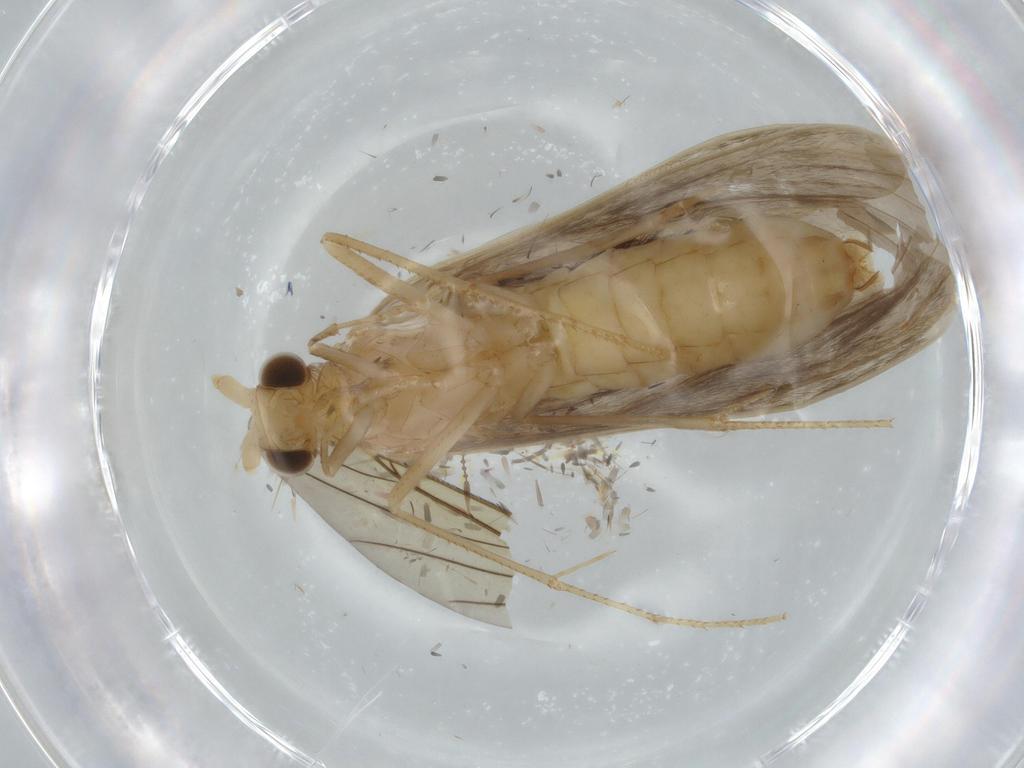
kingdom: Animalia
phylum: Arthropoda
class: Insecta
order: Trichoptera
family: Leptoceridae
